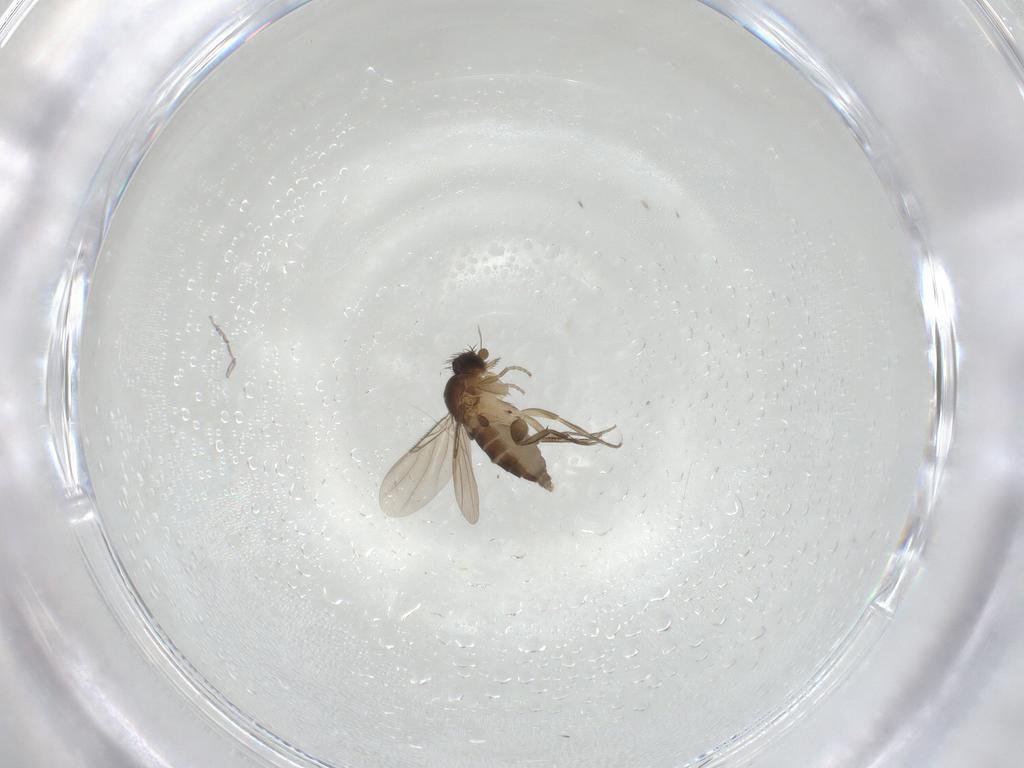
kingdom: Animalia
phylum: Arthropoda
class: Insecta
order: Diptera
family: Phoridae
